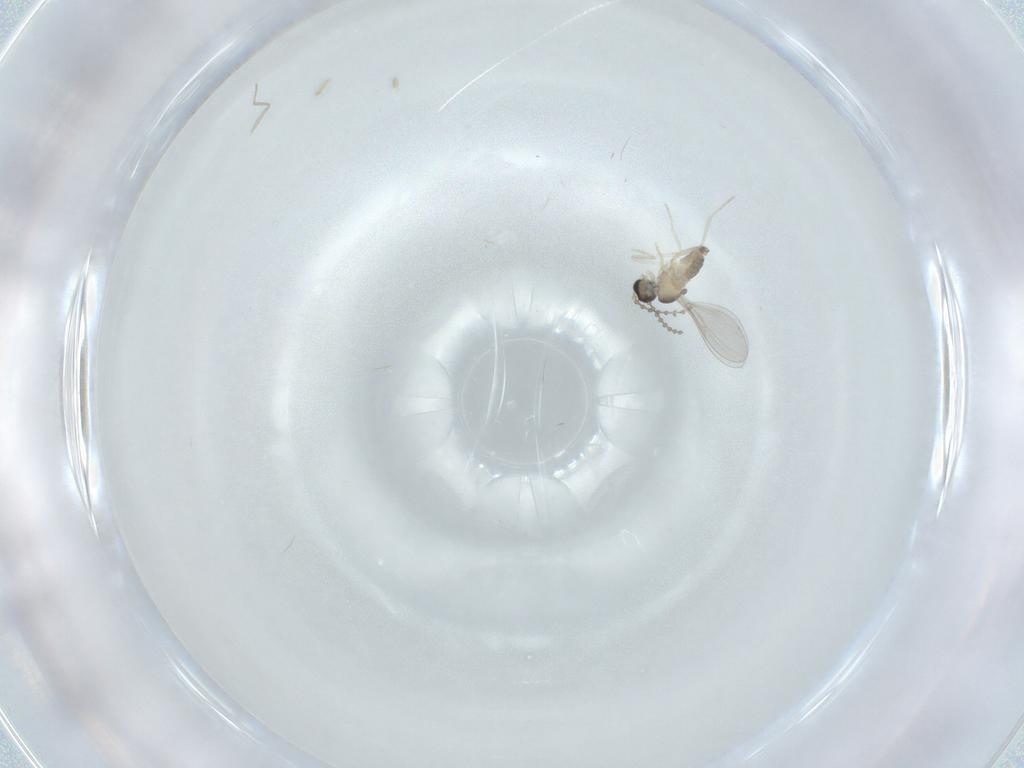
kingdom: Animalia
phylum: Arthropoda
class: Insecta
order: Diptera
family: Cecidomyiidae
